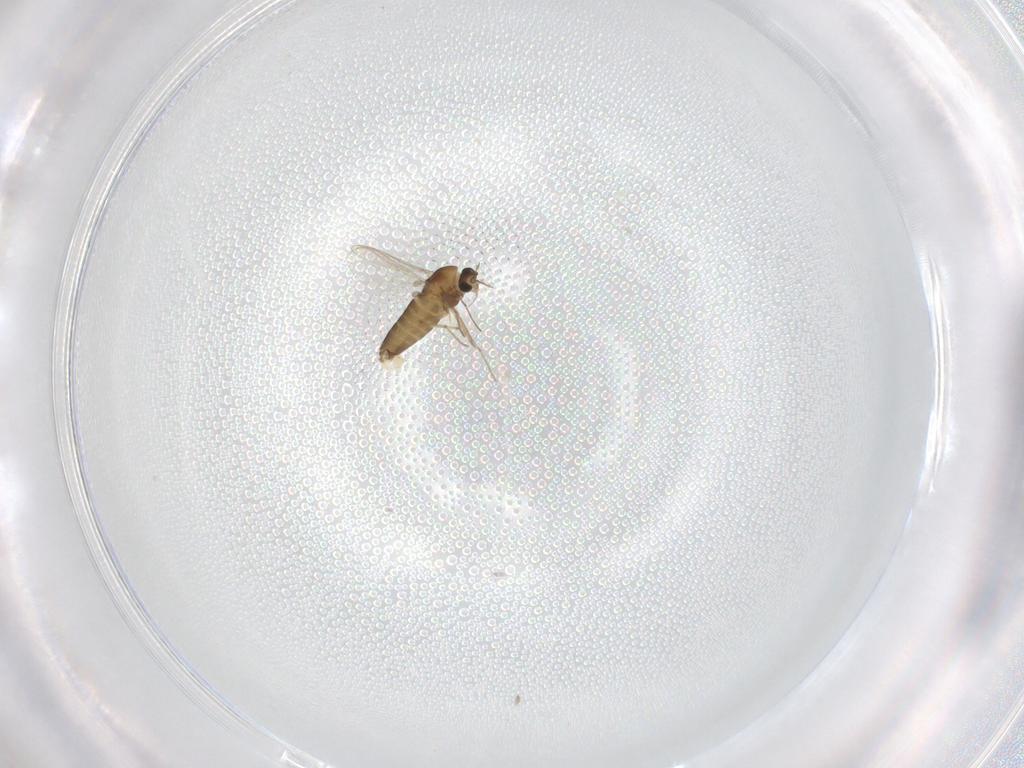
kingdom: Animalia
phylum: Arthropoda
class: Insecta
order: Diptera
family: Chironomidae
